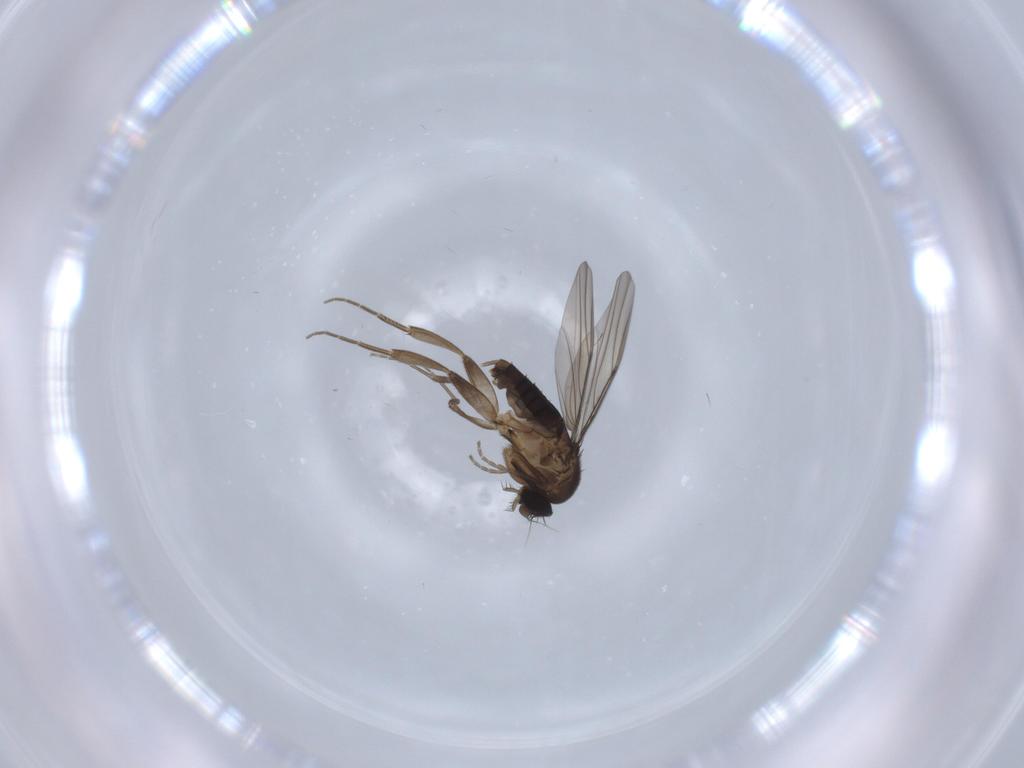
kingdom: Animalia
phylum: Arthropoda
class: Insecta
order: Diptera
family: Phoridae
